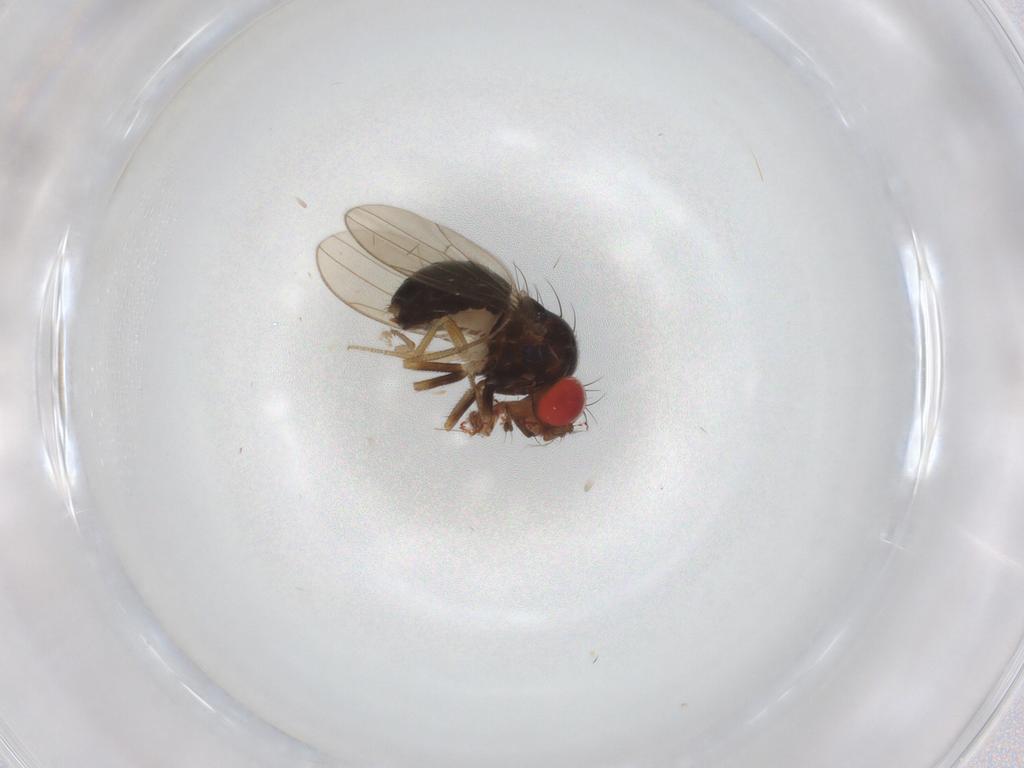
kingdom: Animalia
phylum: Arthropoda
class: Insecta
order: Diptera
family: Drosophilidae
